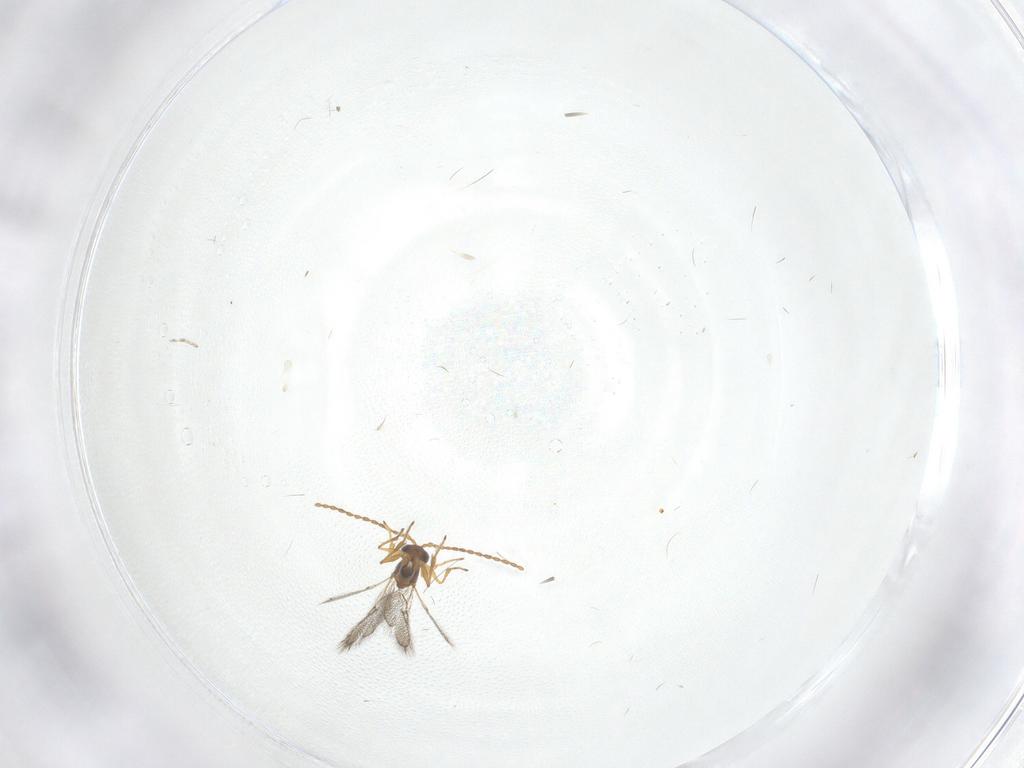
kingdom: Animalia
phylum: Arthropoda
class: Insecta
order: Hymenoptera
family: Figitidae
